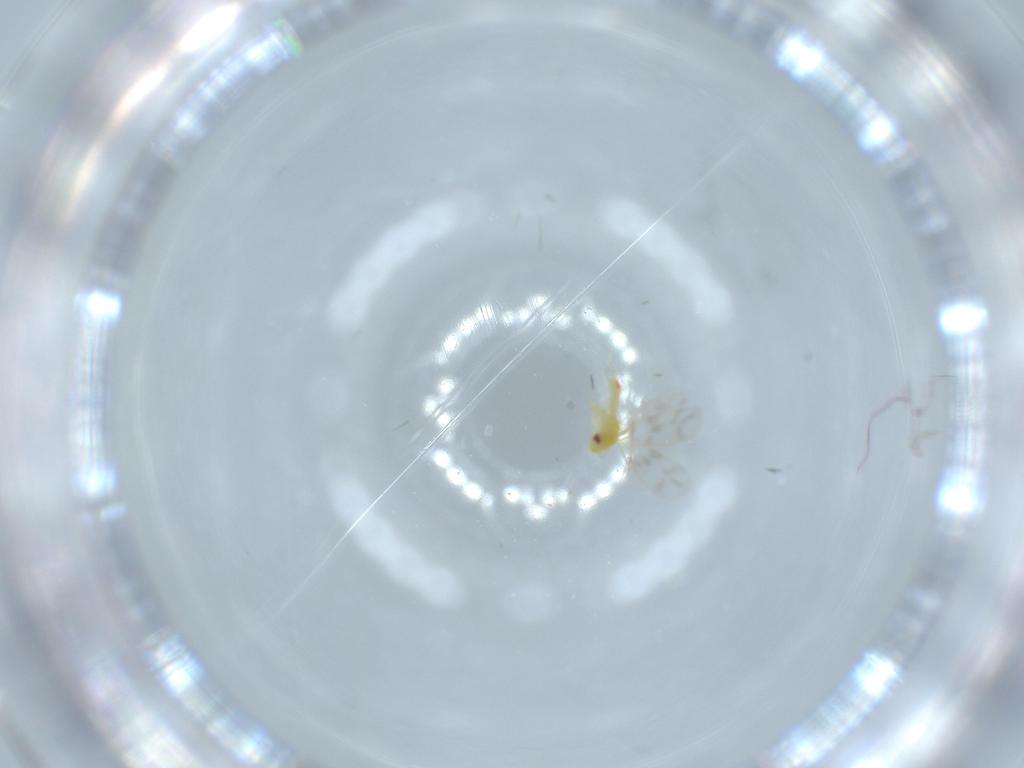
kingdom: Animalia
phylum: Arthropoda
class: Insecta
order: Hemiptera
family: Aleyrodidae
